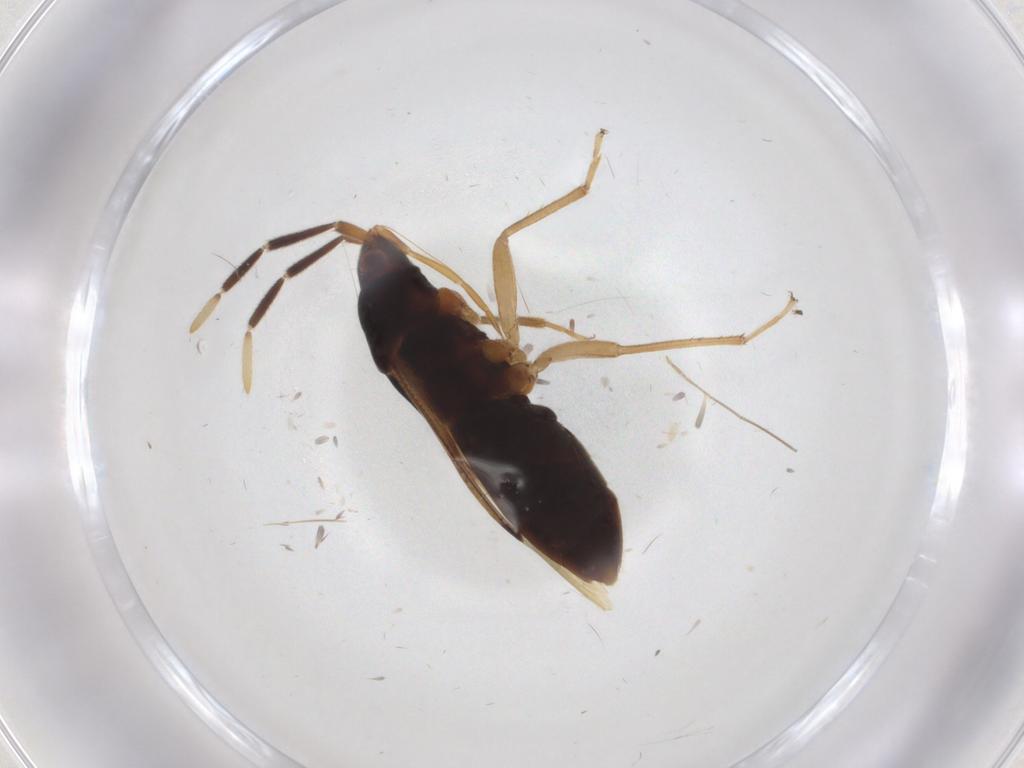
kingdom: Animalia
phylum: Arthropoda
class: Insecta
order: Hemiptera
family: Rhyparochromidae
